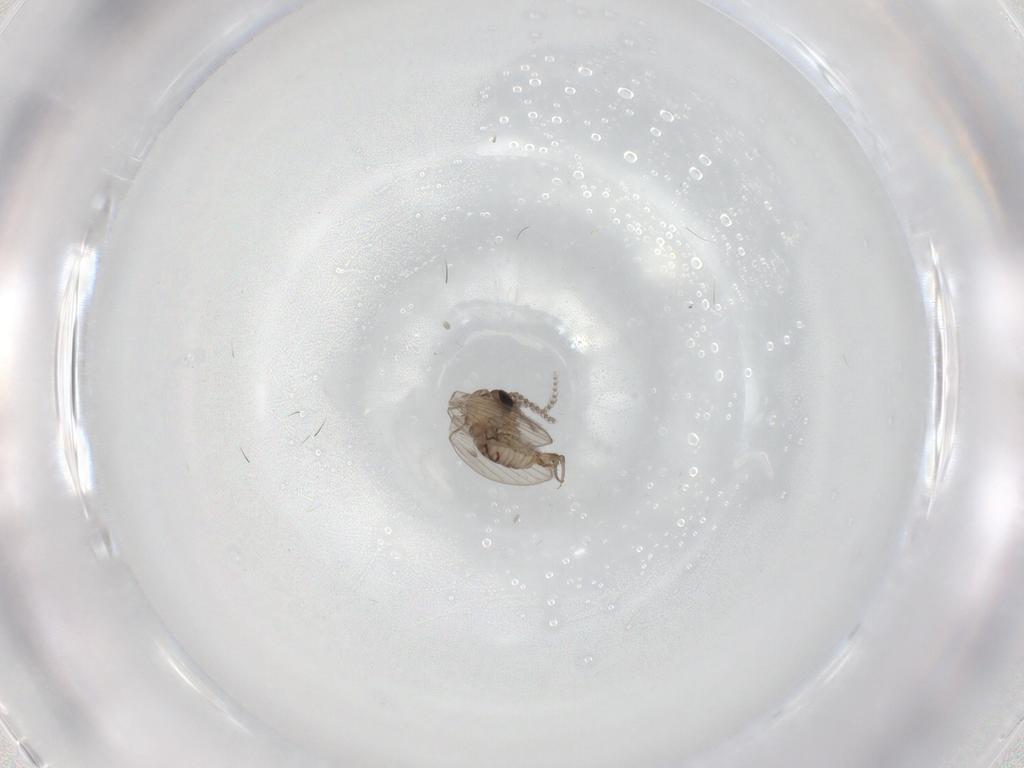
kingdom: Animalia
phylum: Arthropoda
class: Insecta
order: Diptera
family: Psychodidae
